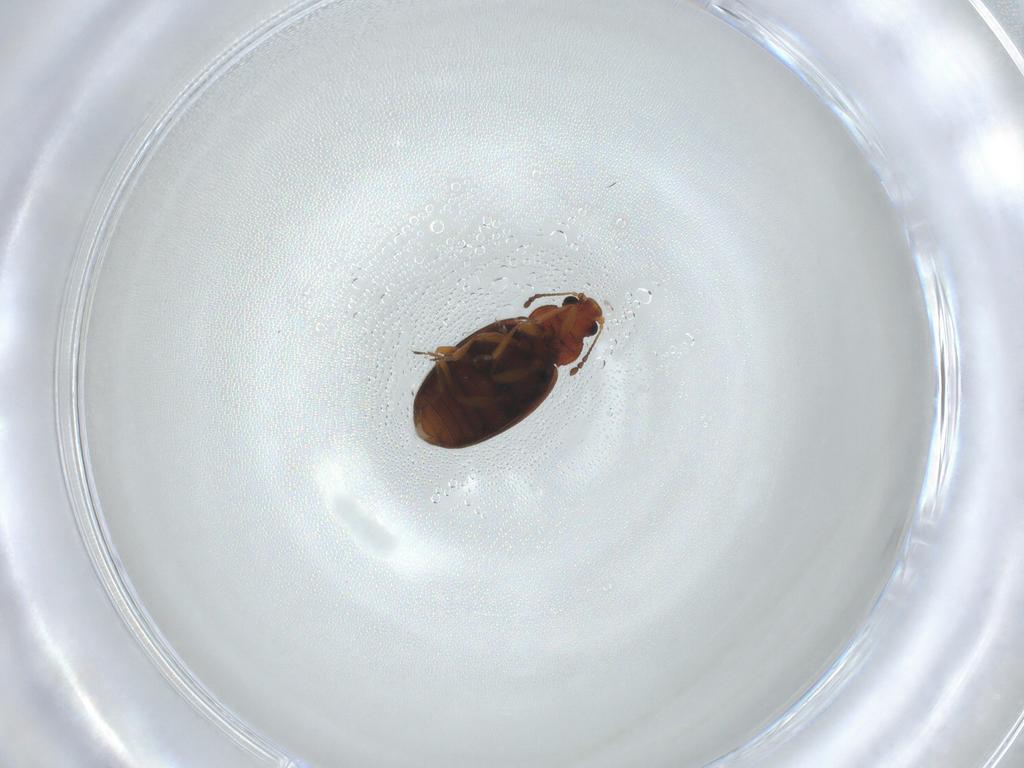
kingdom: Animalia
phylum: Arthropoda
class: Insecta
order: Coleoptera
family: Latridiidae
